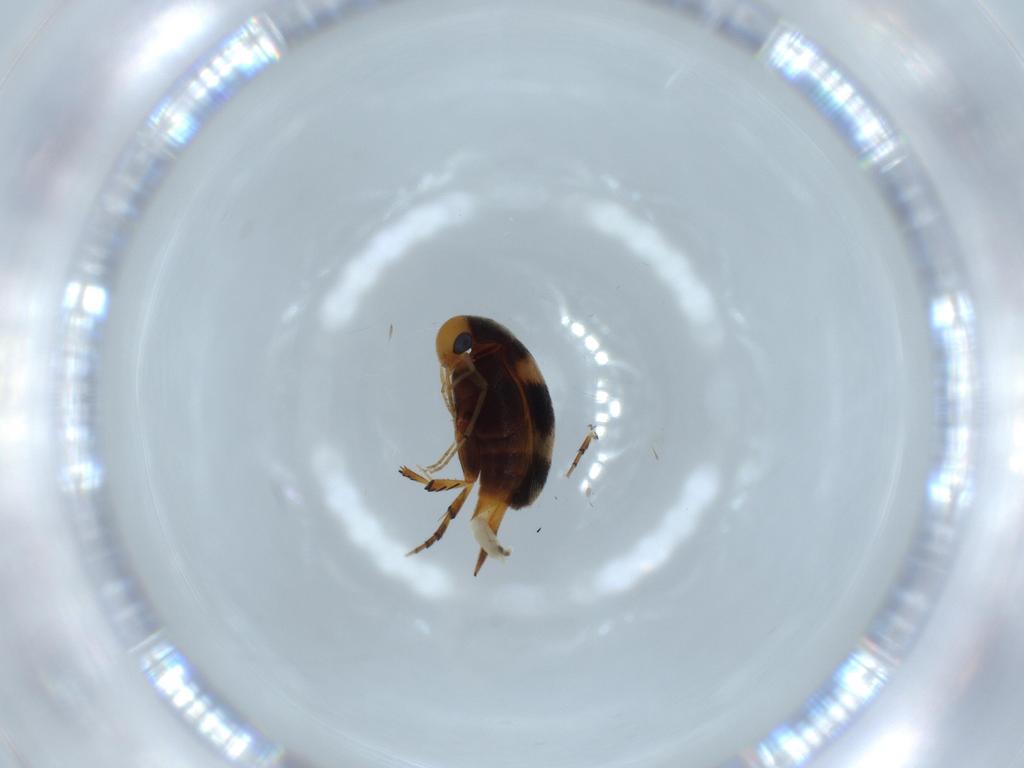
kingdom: Animalia
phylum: Arthropoda
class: Insecta
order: Coleoptera
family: Mordellidae
